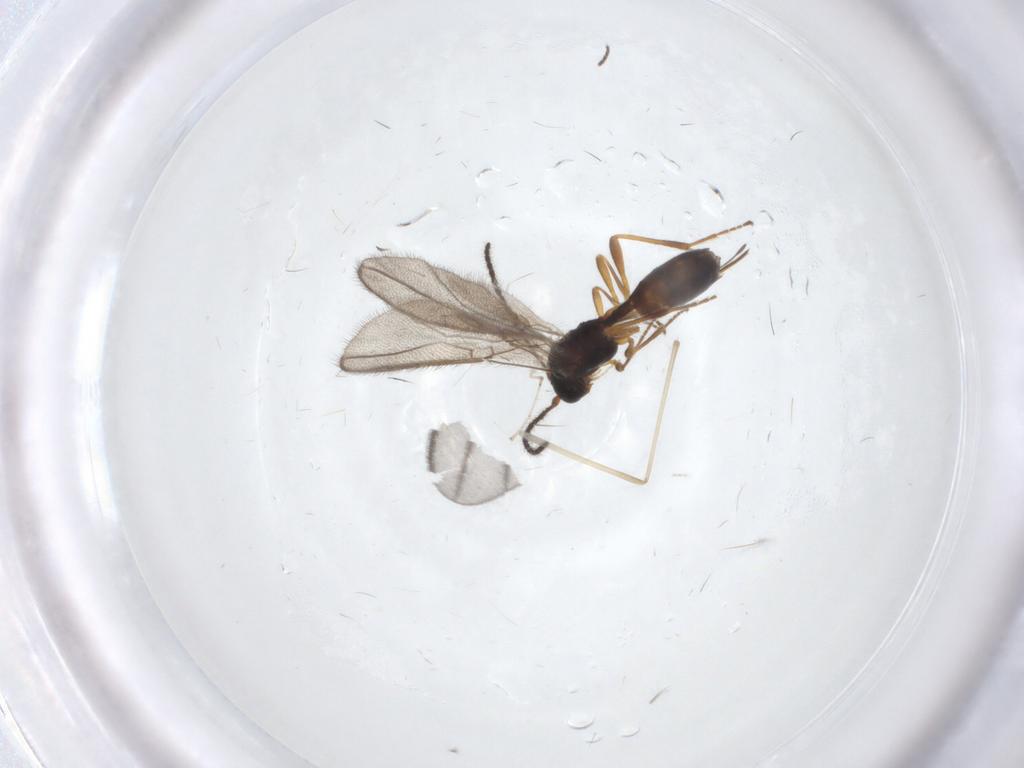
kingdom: Animalia
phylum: Arthropoda
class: Insecta
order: Hymenoptera
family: Braconidae
